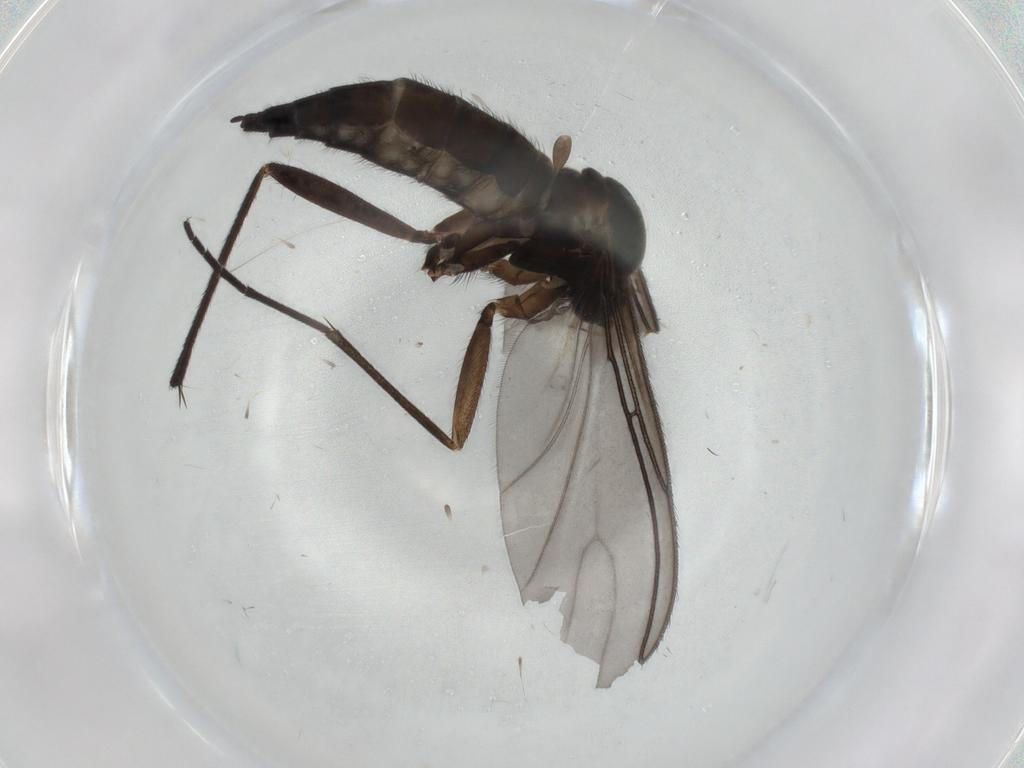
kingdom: Animalia
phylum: Arthropoda
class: Insecta
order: Diptera
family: Sciaridae
